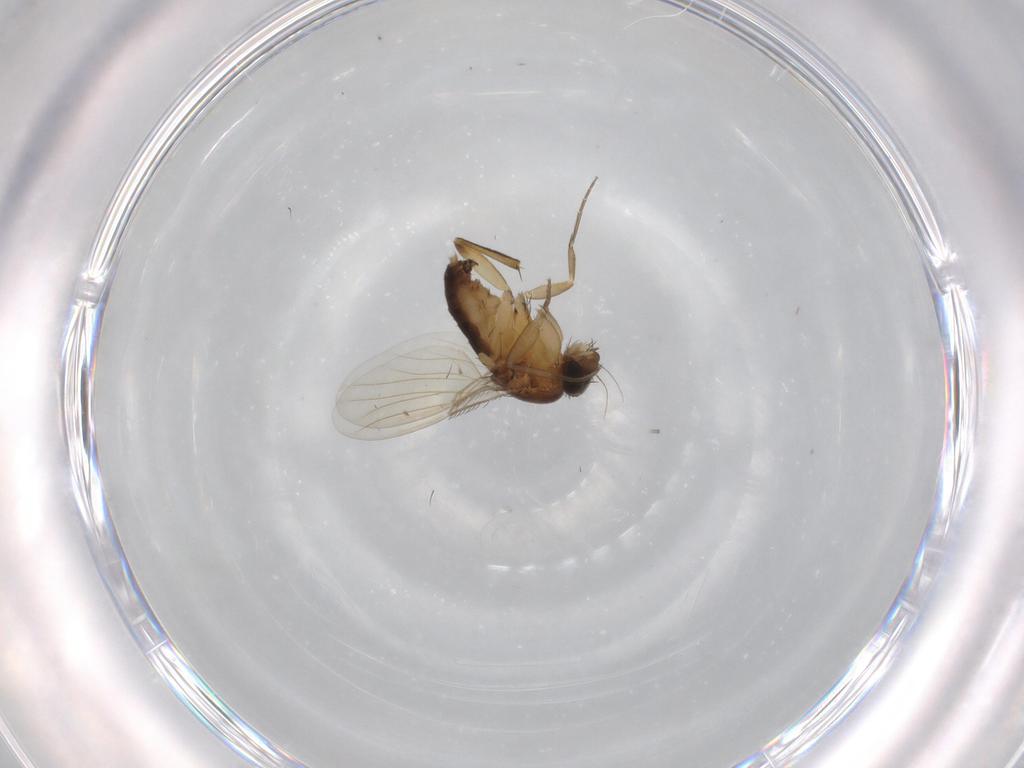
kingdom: Animalia
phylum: Arthropoda
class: Insecta
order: Diptera
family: Phoridae
